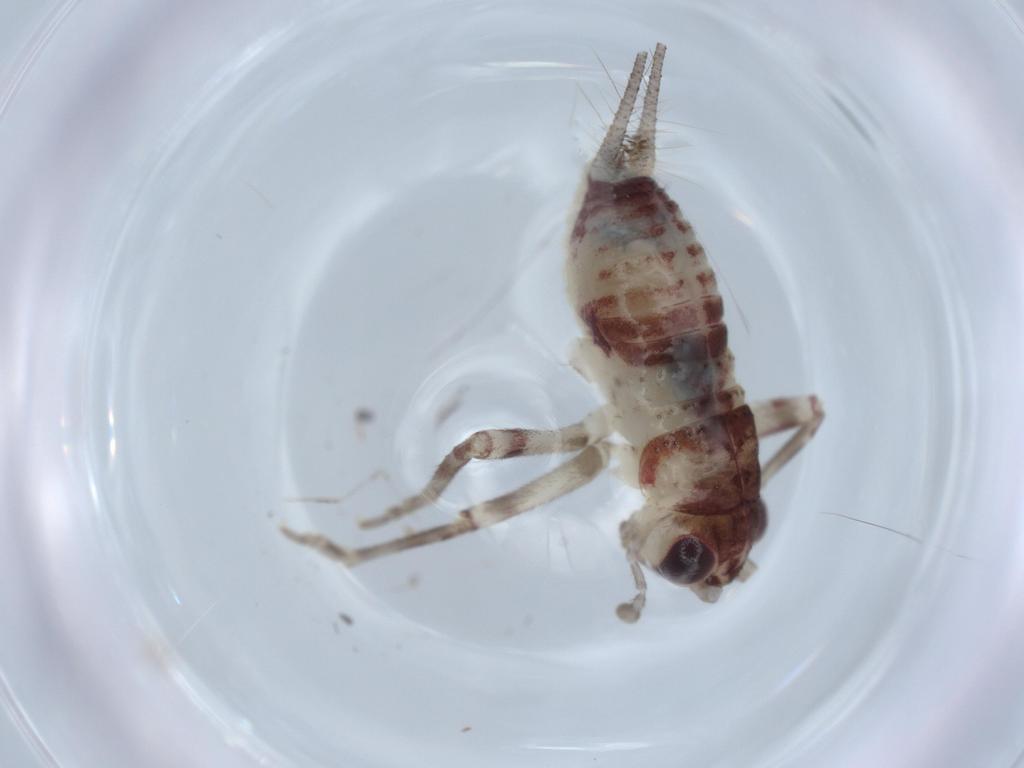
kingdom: Animalia
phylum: Arthropoda
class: Insecta
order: Orthoptera
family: Trigonidiidae
